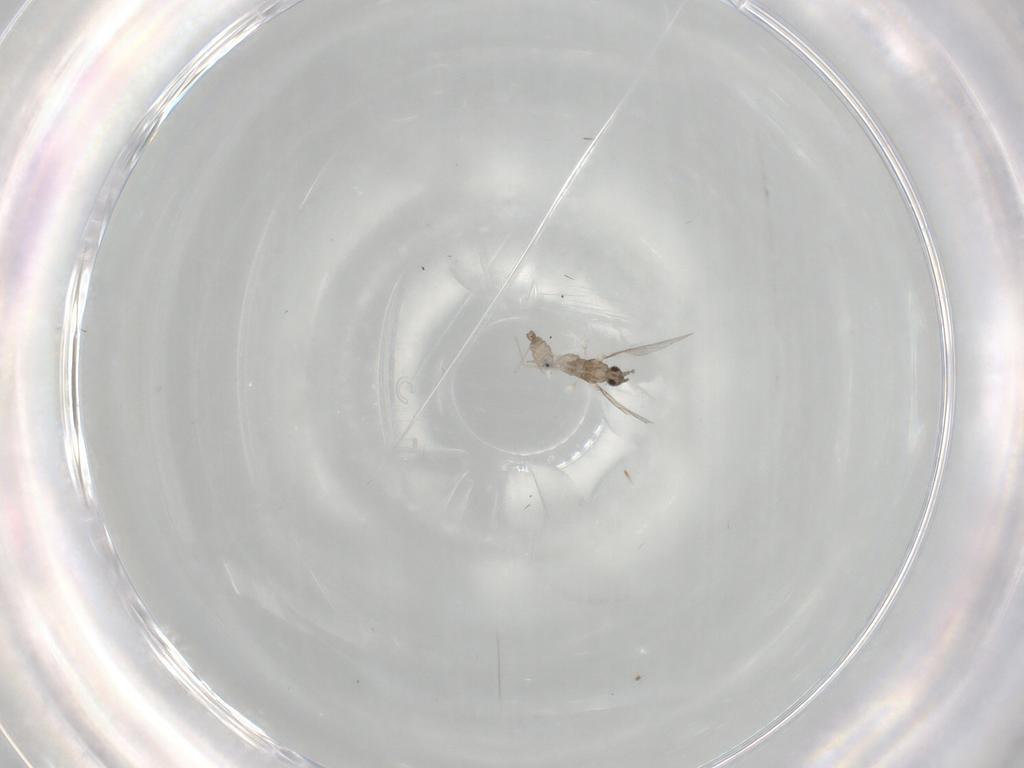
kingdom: Animalia
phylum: Arthropoda
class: Insecta
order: Diptera
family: Cecidomyiidae
